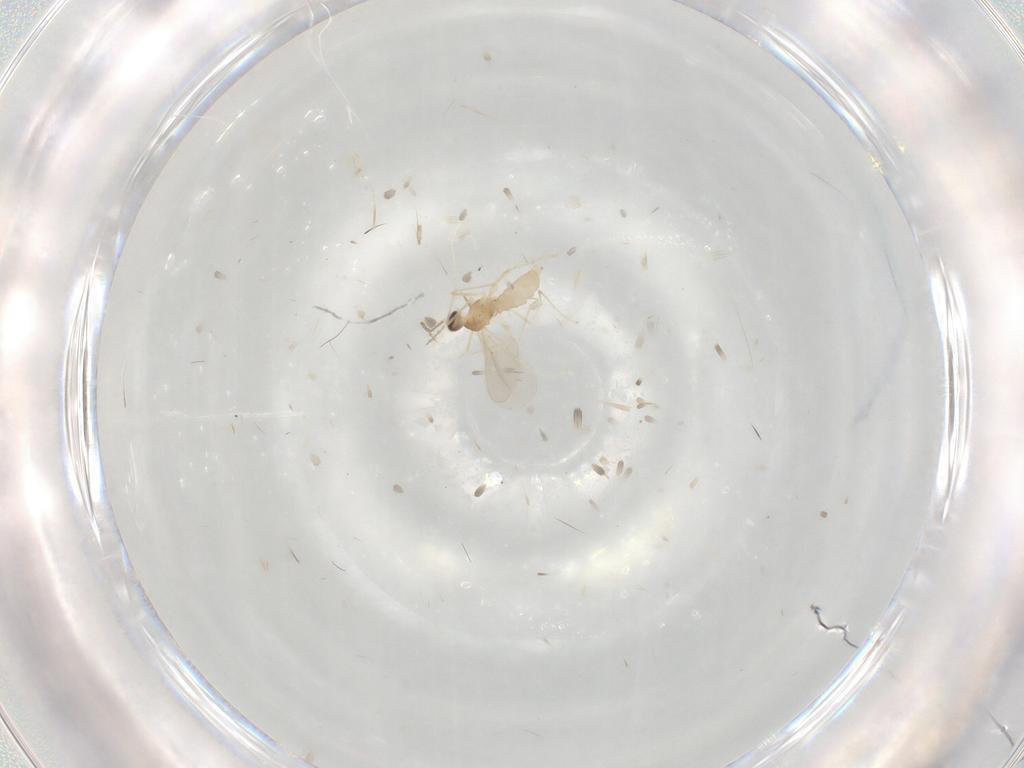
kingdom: Animalia
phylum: Arthropoda
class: Insecta
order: Diptera
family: Cecidomyiidae
